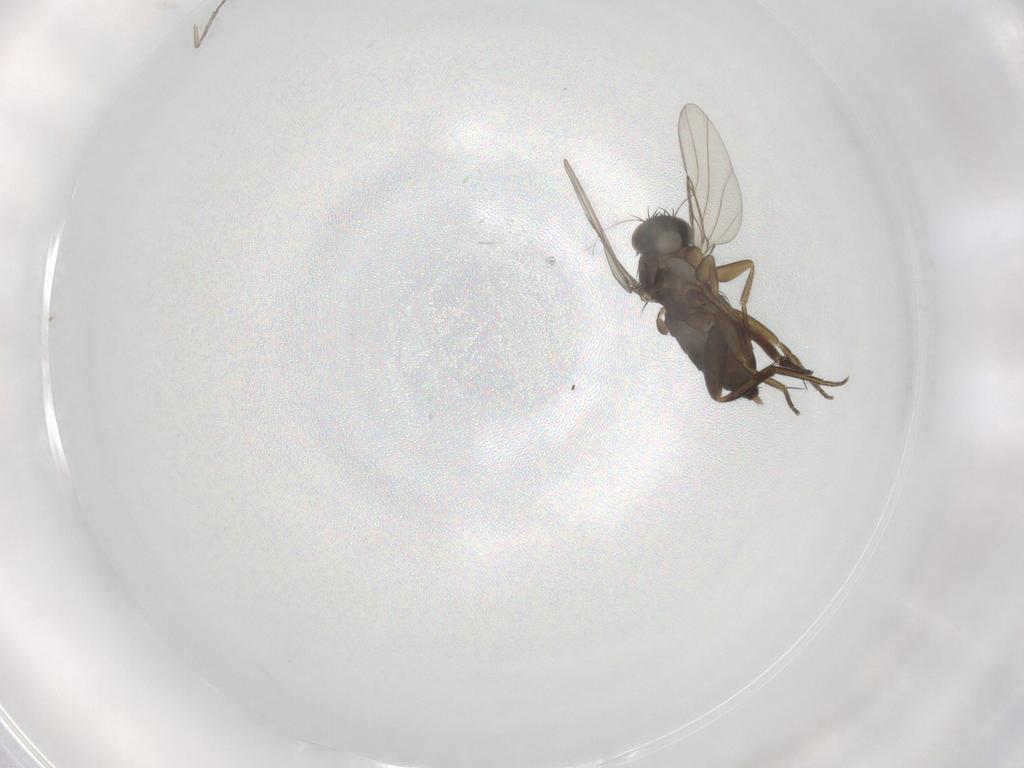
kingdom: Animalia
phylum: Arthropoda
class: Insecta
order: Diptera
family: Phoridae
